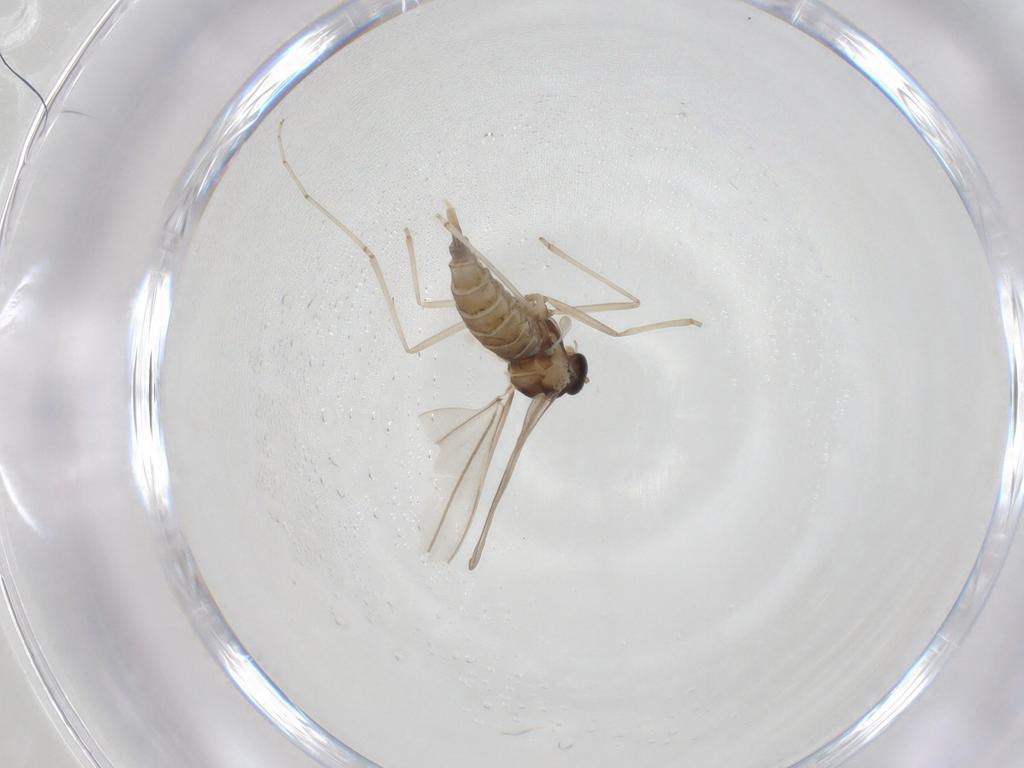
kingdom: Animalia
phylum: Arthropoda
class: Insecta
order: Diptera
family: Cecidomyiidae
